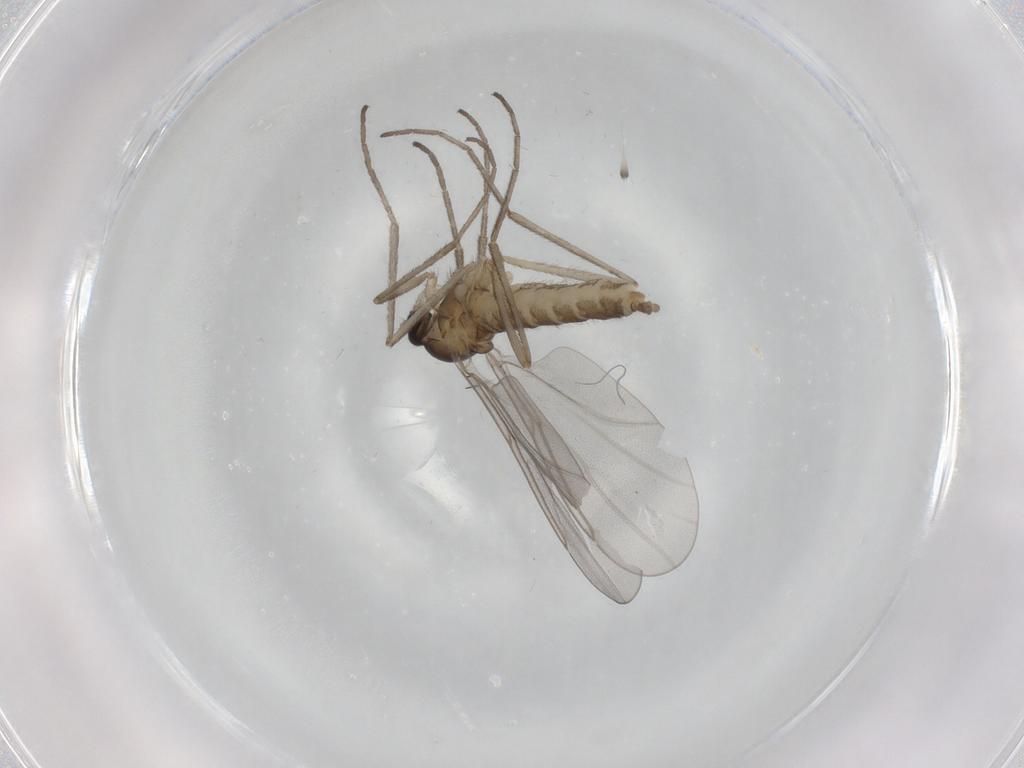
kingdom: Animalia
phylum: Arthropoda
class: Insecta
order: Diptera
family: Cecidomyiidae
